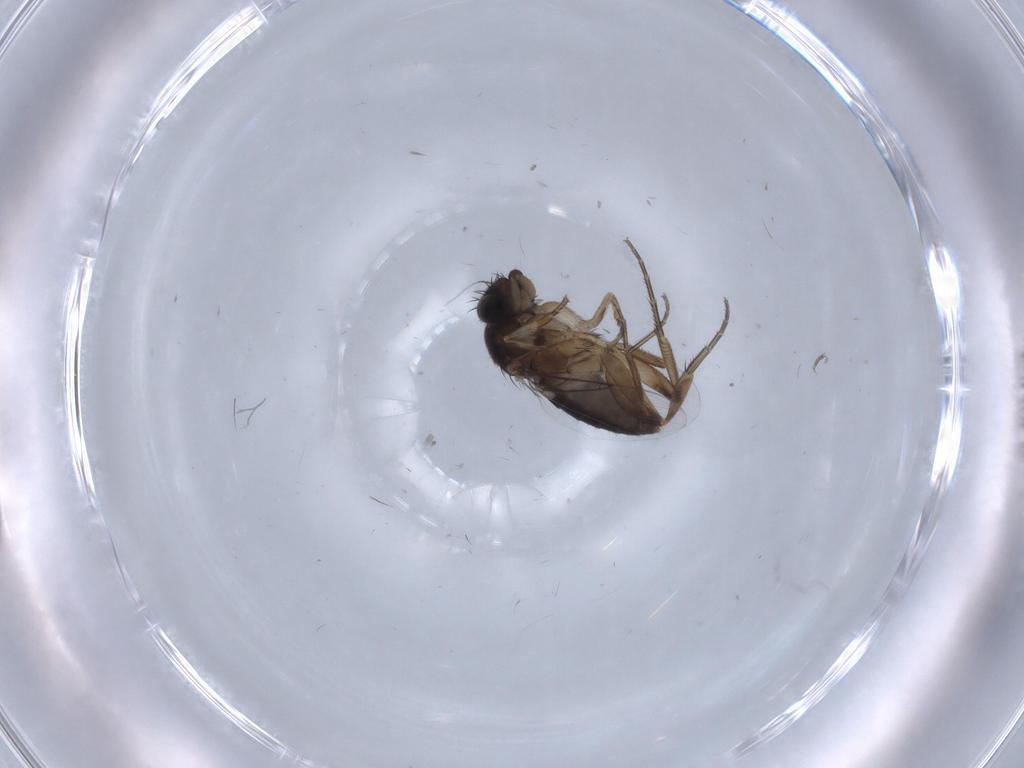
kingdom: Animalia
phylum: Arthropoda
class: Insecta
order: Diptera
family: Phoridae
